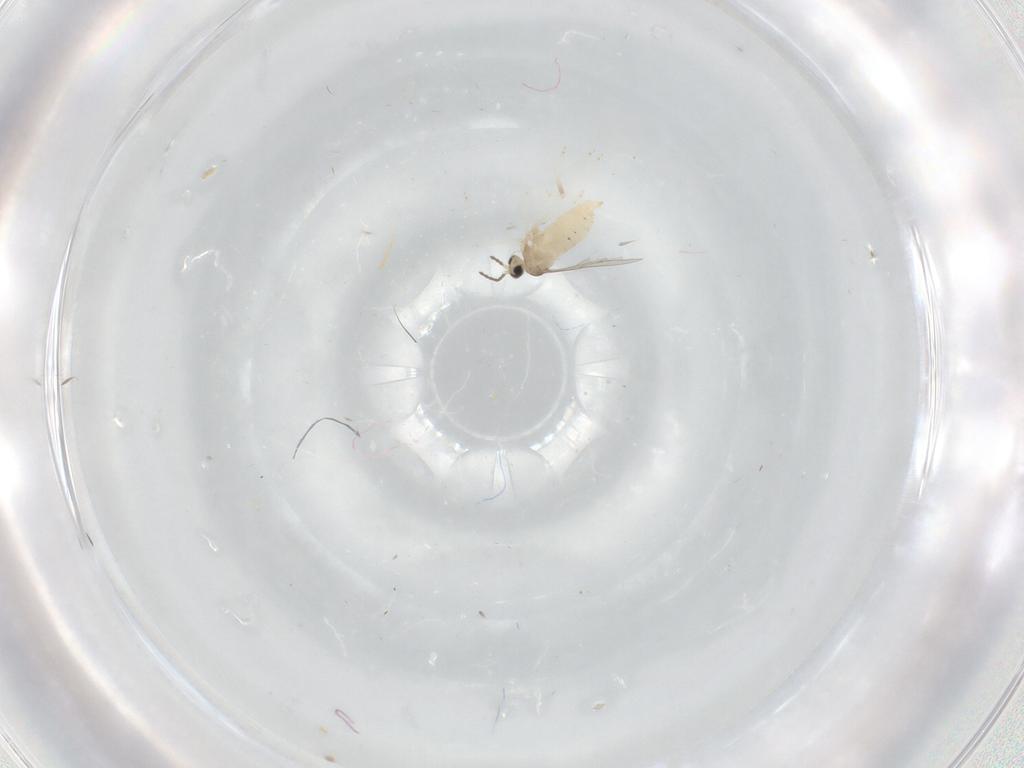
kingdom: Animalia
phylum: Arthropoda
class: Insecta
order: Diptera
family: Cecidomyiidae
